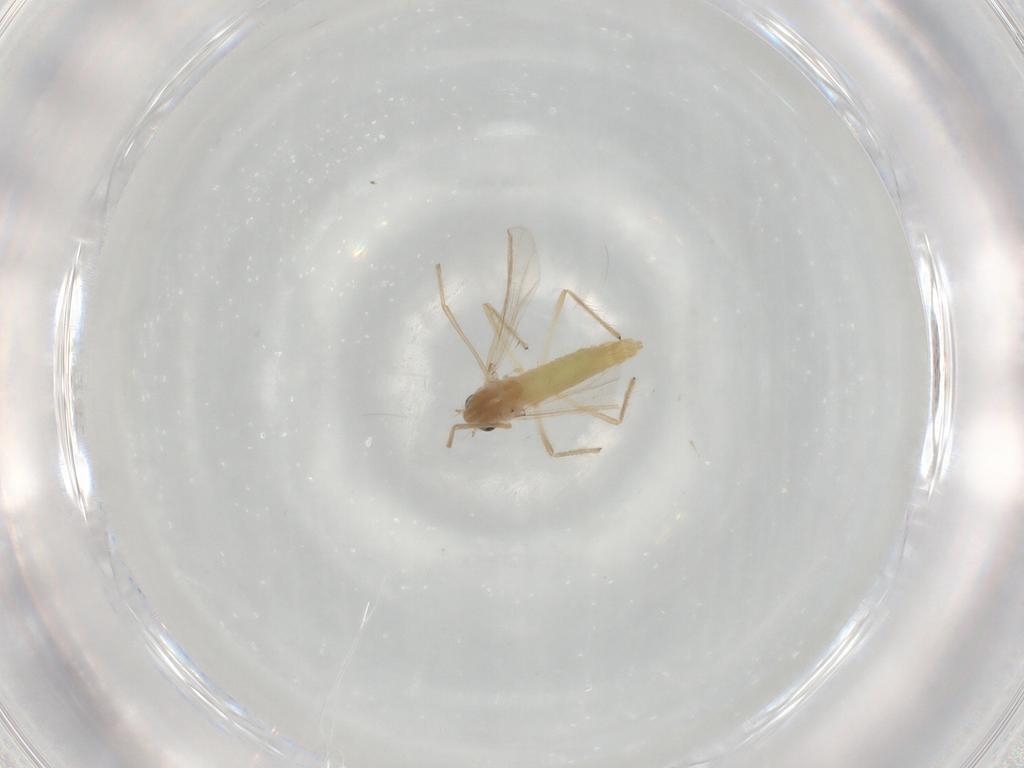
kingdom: Animalia
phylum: Arthropoda
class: Insecta
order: Diptera
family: Chironomidae
